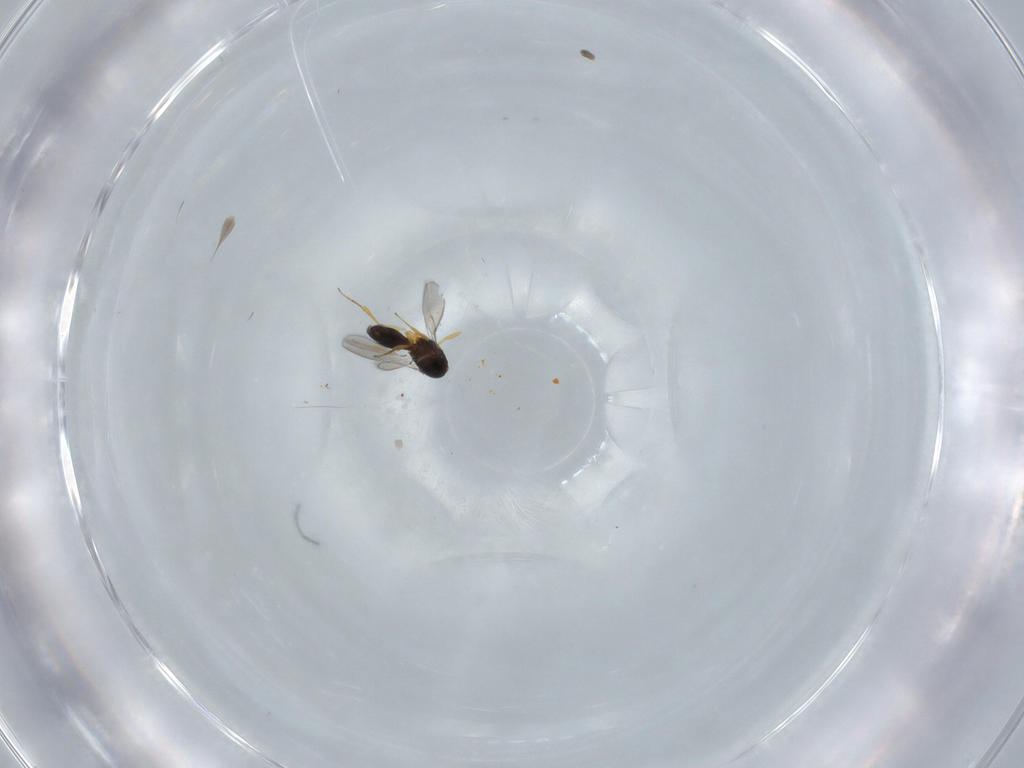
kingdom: Animalia
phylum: Arthropoda
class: Insecta
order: Hymenoptera
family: Scelionidae
